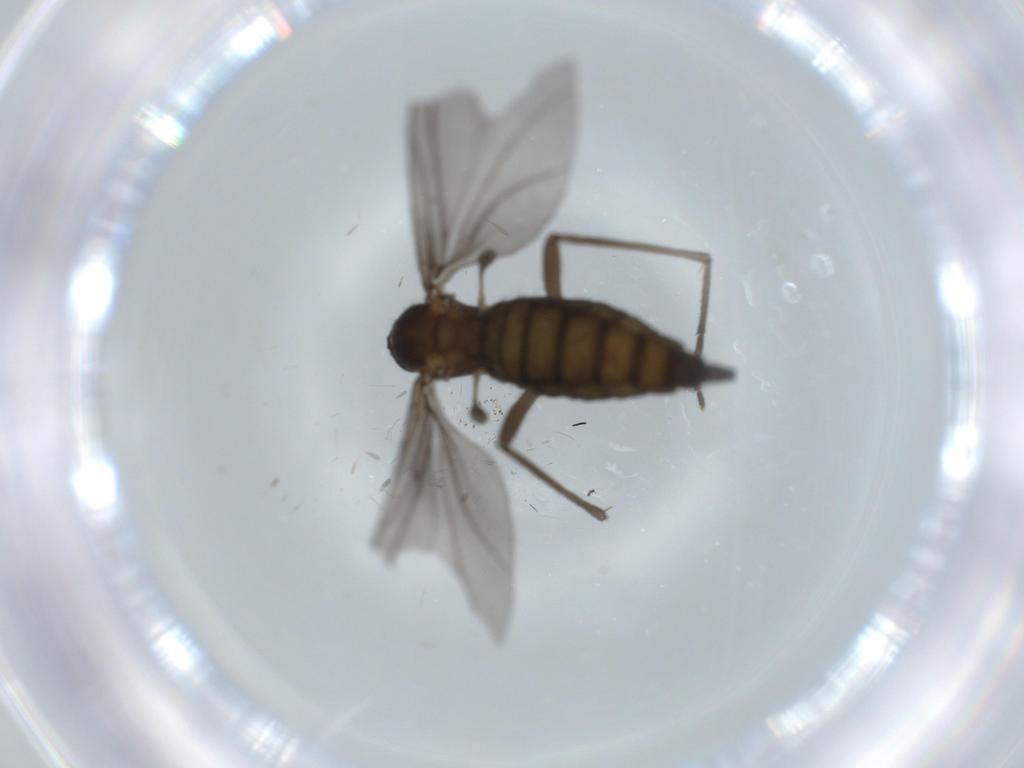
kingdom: Animalia
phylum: Arthropoda
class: Insecta
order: Diptera
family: Sciaridae
